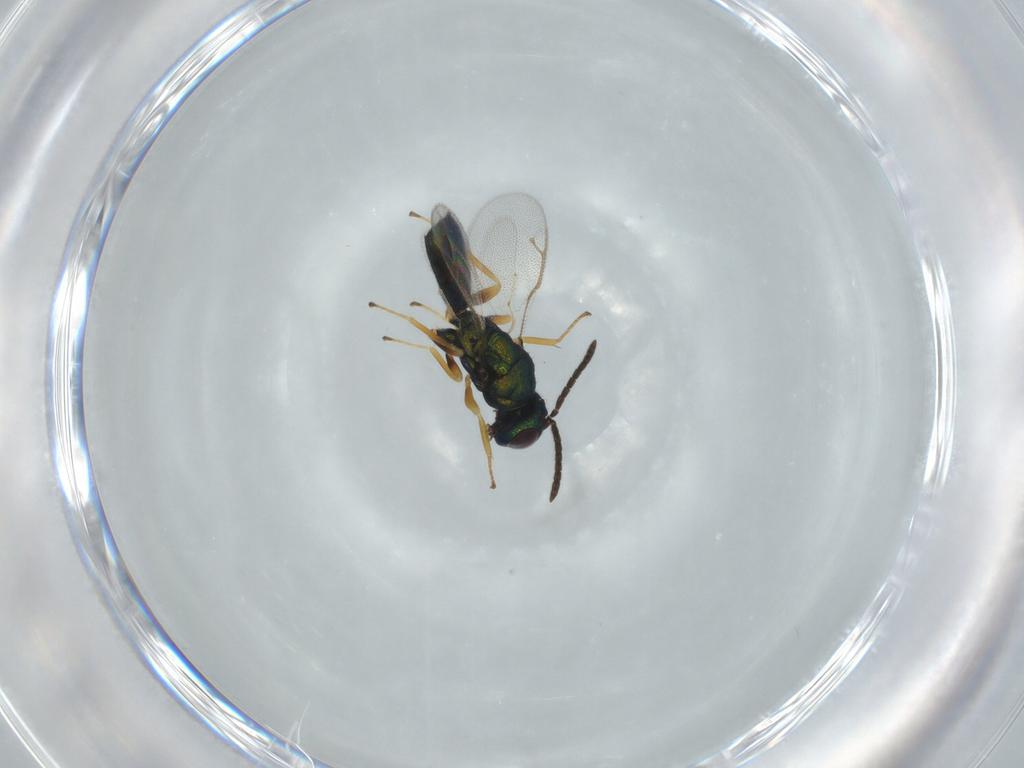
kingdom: Animalia
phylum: Arthropoda
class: Insecta
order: Hymenoptera
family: Pteromalidae
